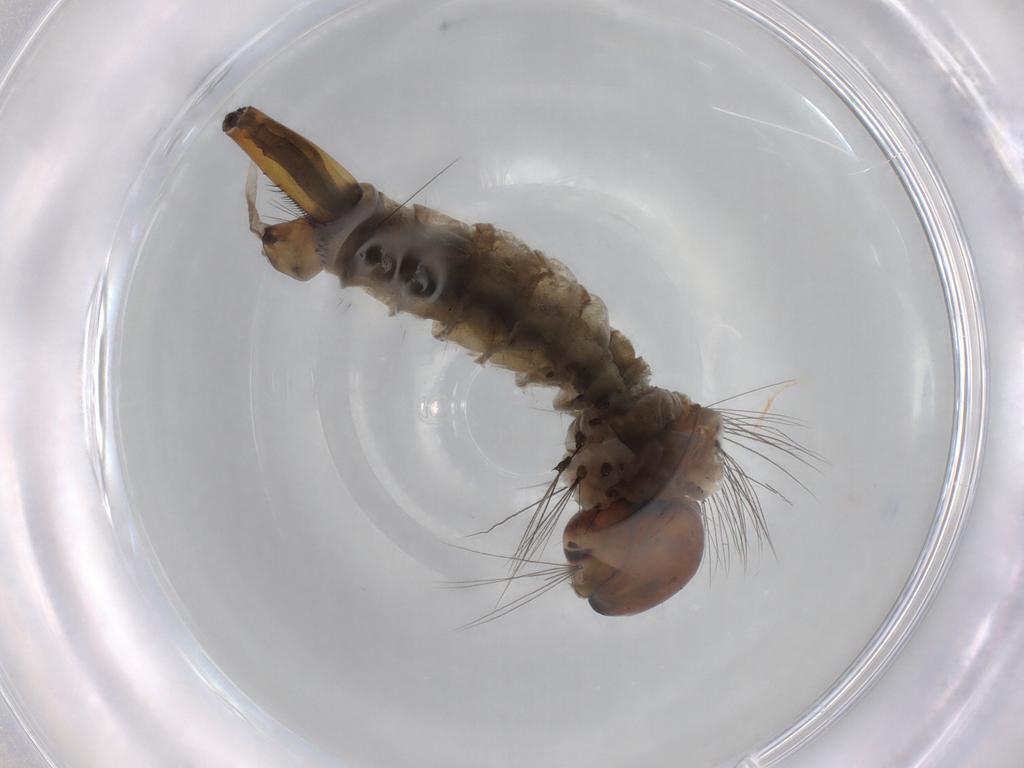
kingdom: Animalia
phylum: Arthropoda
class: Insecta
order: Diptera
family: Culicidae
